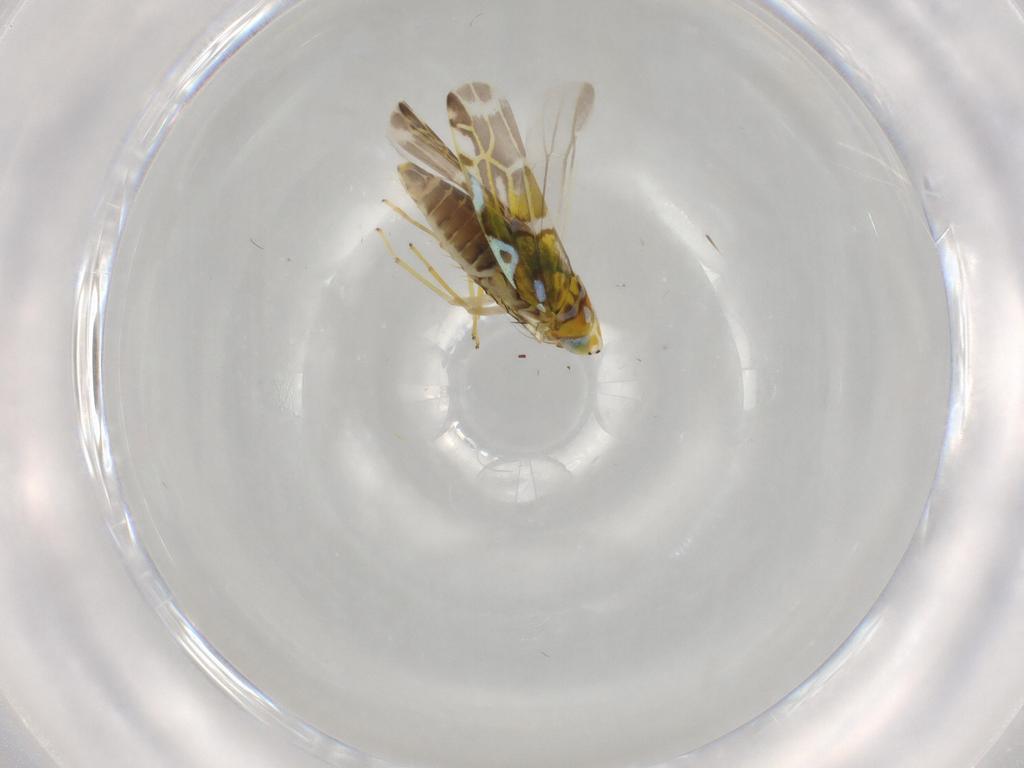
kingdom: Animalia
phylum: Arthropoda
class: Insecta
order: Hemiptera
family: Cicadellidae
